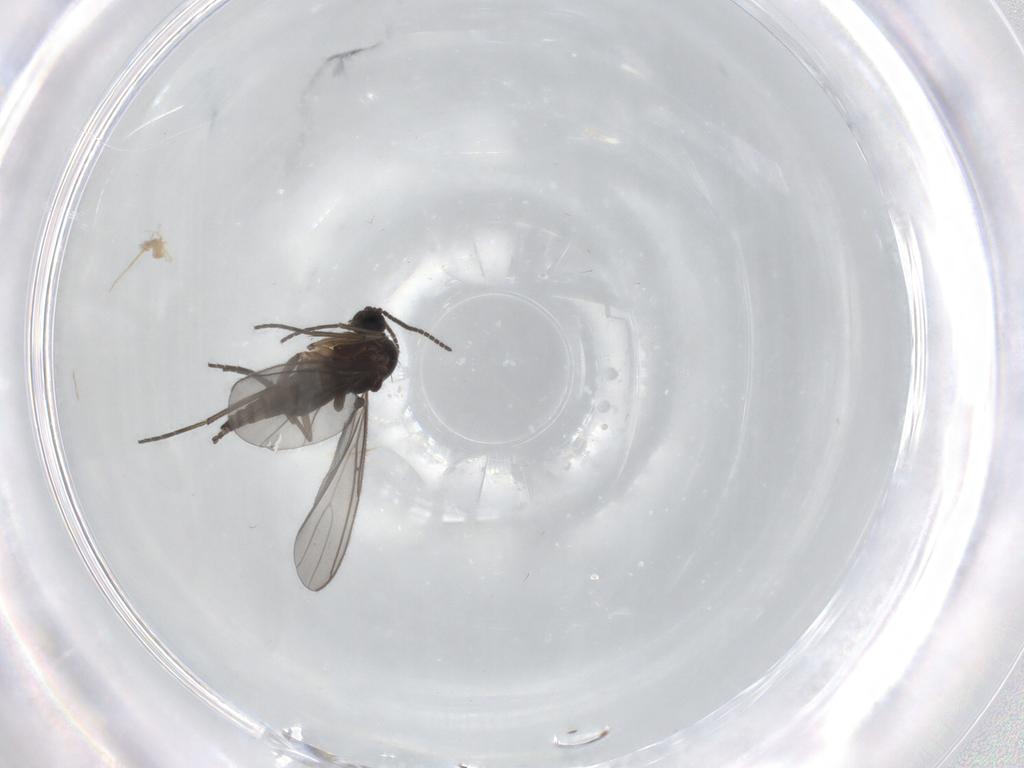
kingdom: Animalia
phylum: Arthropoda
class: Insecta
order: Diptera
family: Sciaridae
